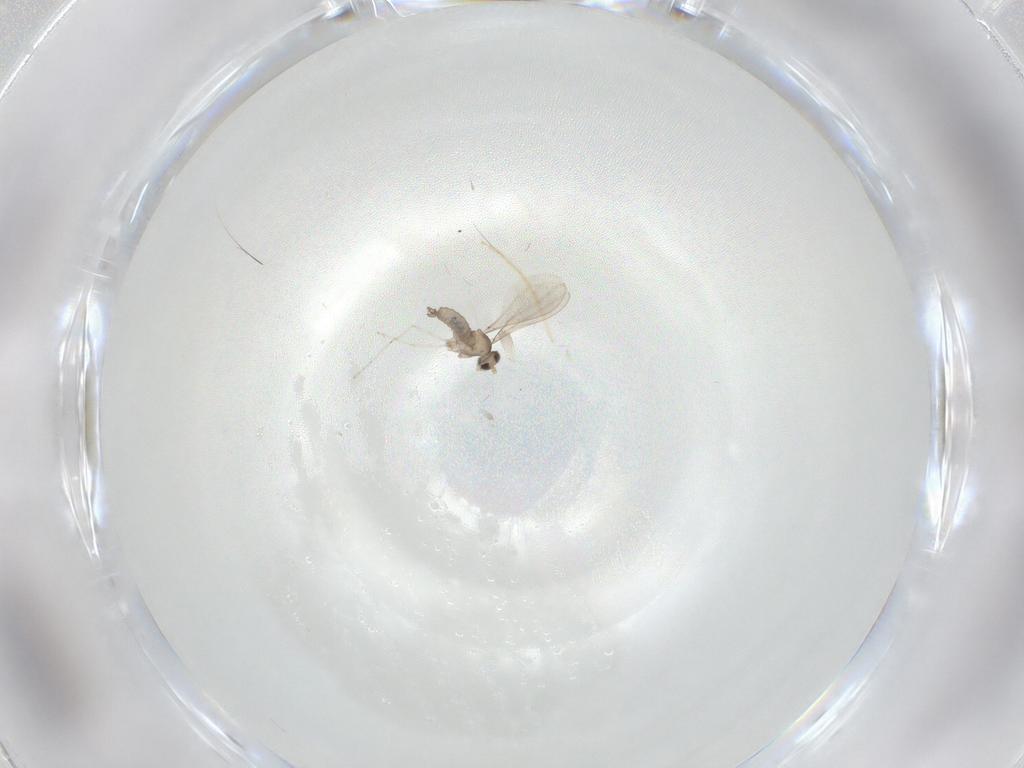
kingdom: Animalia
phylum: Arthropoda
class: Insecta
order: Diptera
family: Chironomidae
